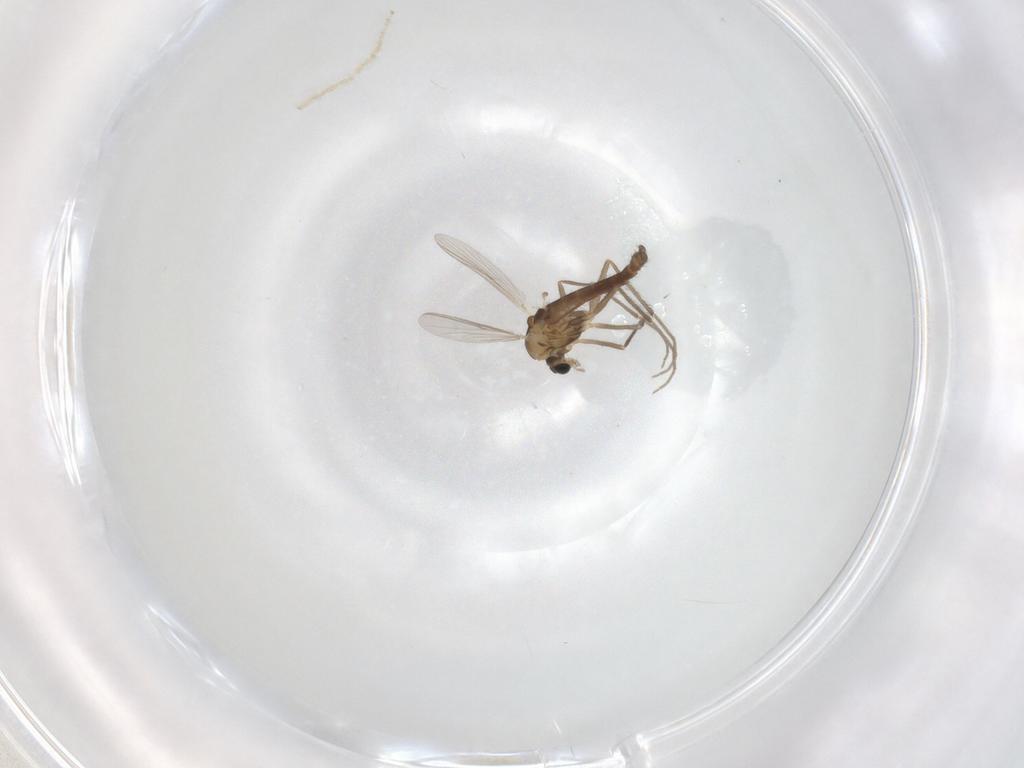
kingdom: Animalia
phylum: Arthropoda
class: Insecta
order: Diptera
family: Chironomidae
